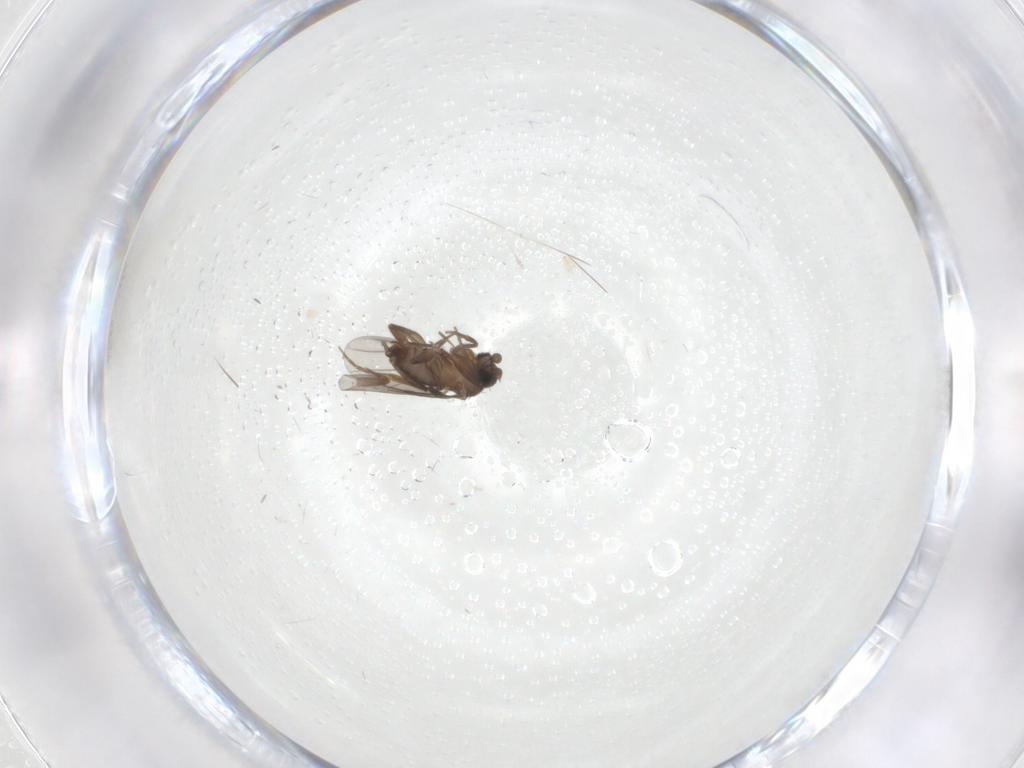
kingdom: Animalia
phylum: Arthropoda
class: Insecta
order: Diptera
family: Phoridae
